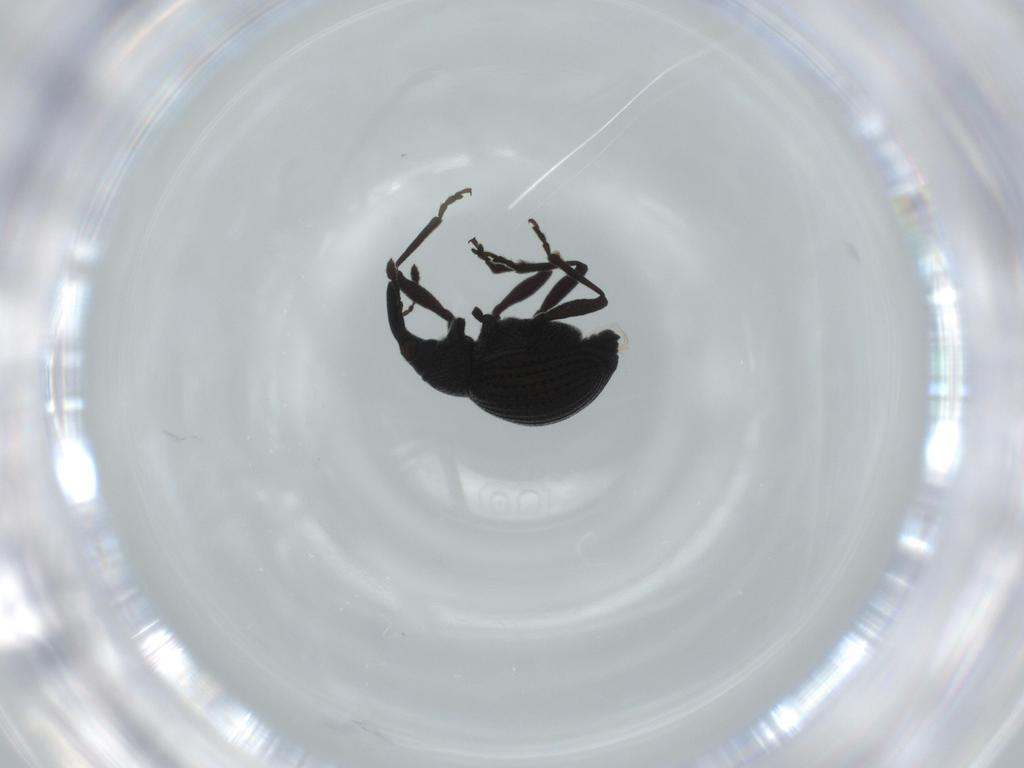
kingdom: Animalia
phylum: Arthropoda
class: Insecta
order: Coleoptera
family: Brentidae
